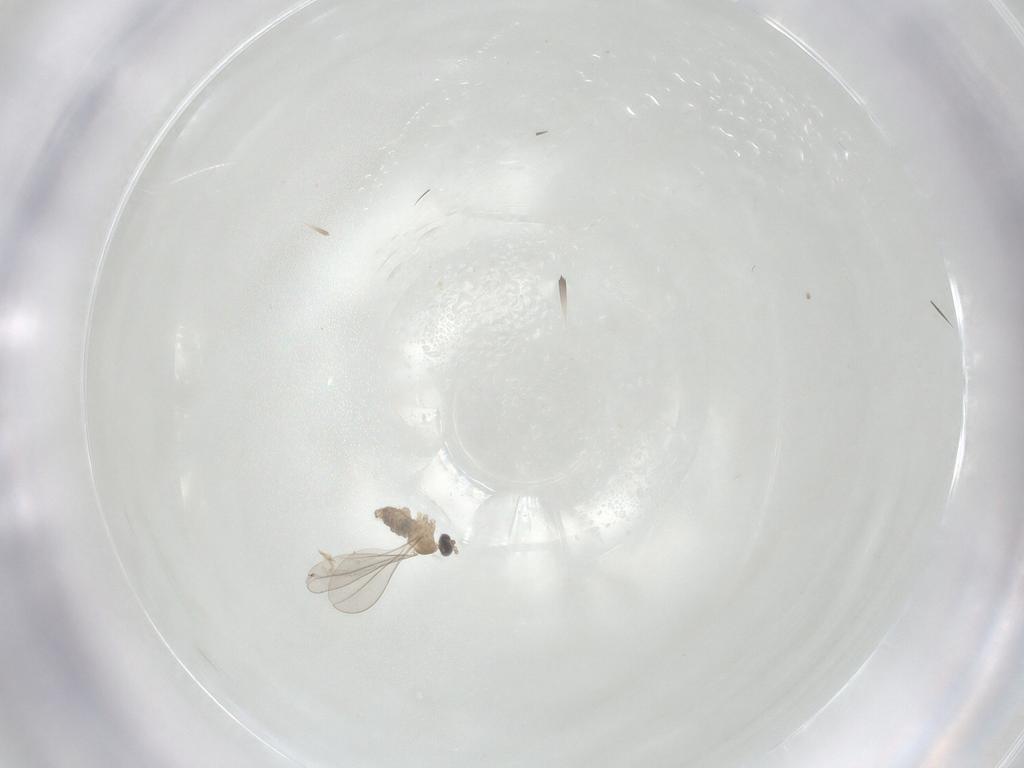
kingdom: Animalia
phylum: Arthropoda
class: Insecta
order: Diptera
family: Cecidomyiidae
